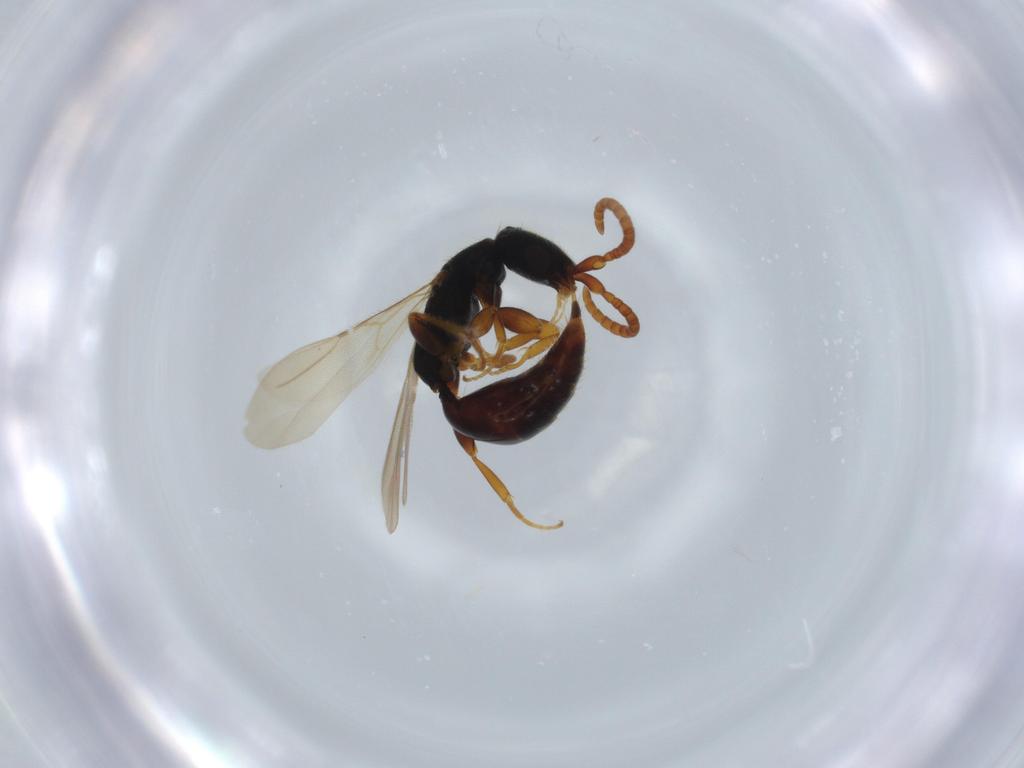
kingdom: Animalia
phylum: Arthropoda
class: Insecta
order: Hymenoptera
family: Bethylidae
